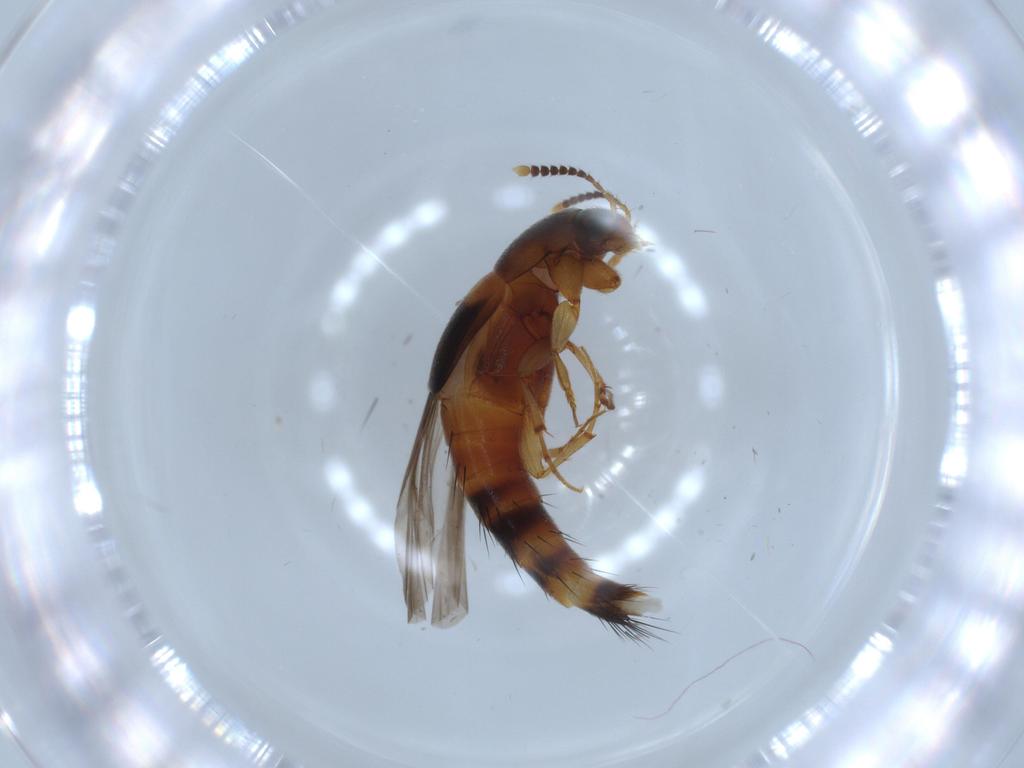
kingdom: Animalia
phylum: Arthropoda
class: Insecta
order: Coleoptera
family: Staphylinidae
